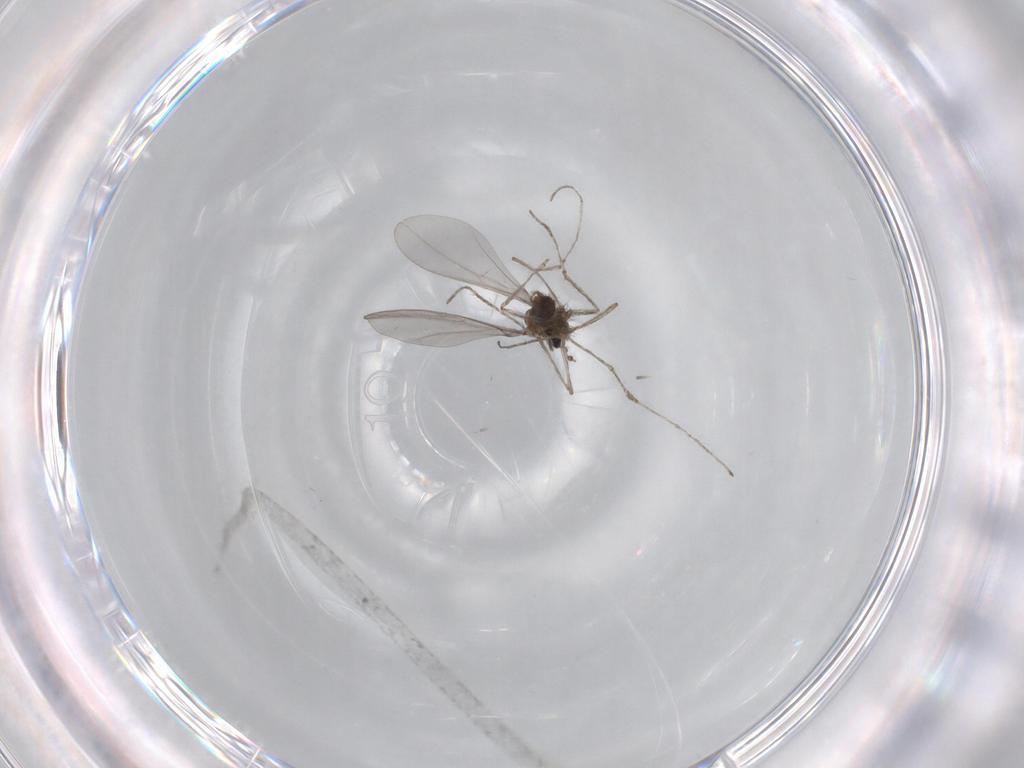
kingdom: Animalia
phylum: Arthropoda
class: Insecta
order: Diptera
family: Cecidomyiidae
